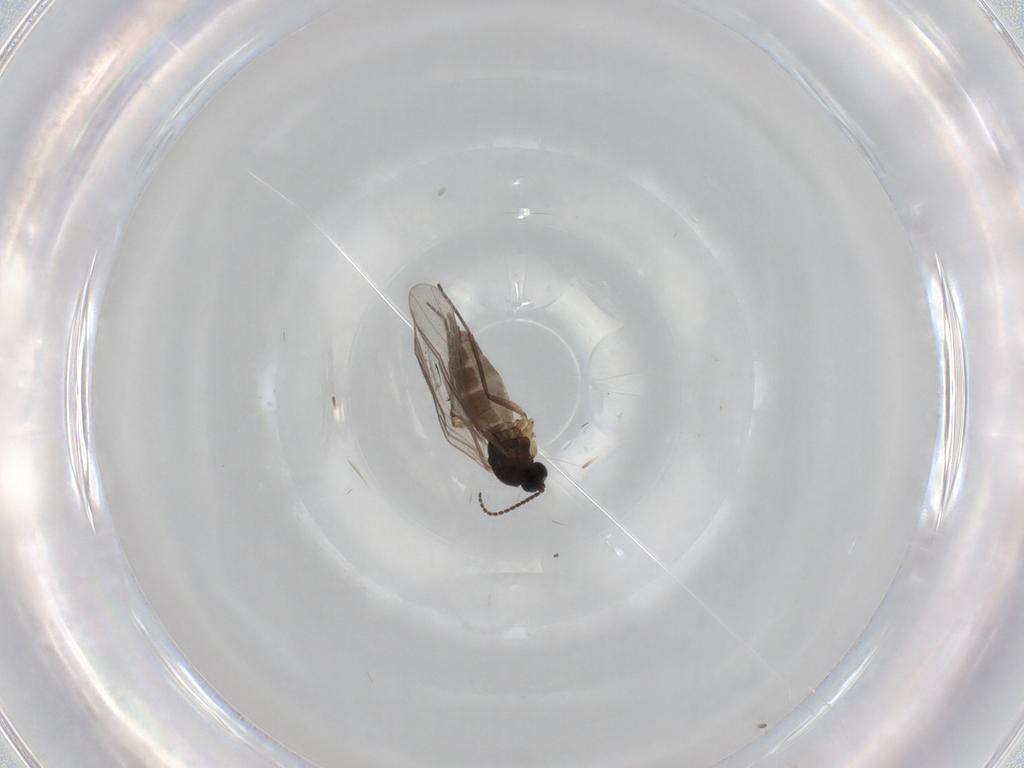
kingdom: Animalia
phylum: Arthropoda
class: Insecta
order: Diptera
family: Sciaridae
